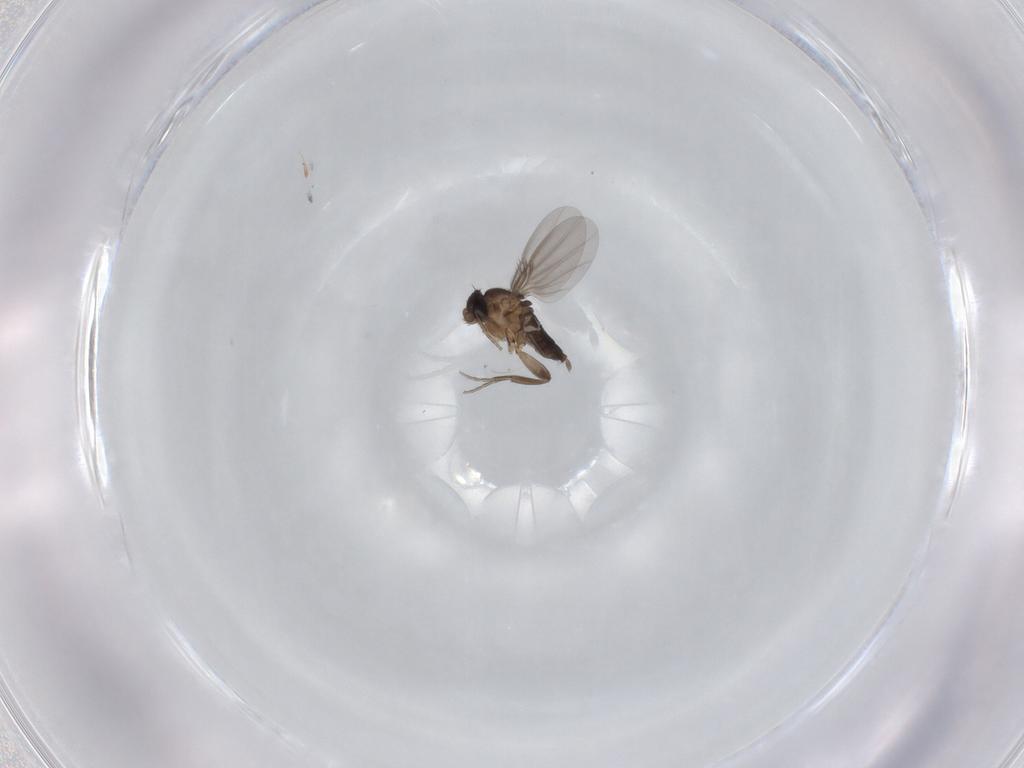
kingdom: Animalia
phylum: Arthropoda
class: Insecta
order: Diptera
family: Phoridae
